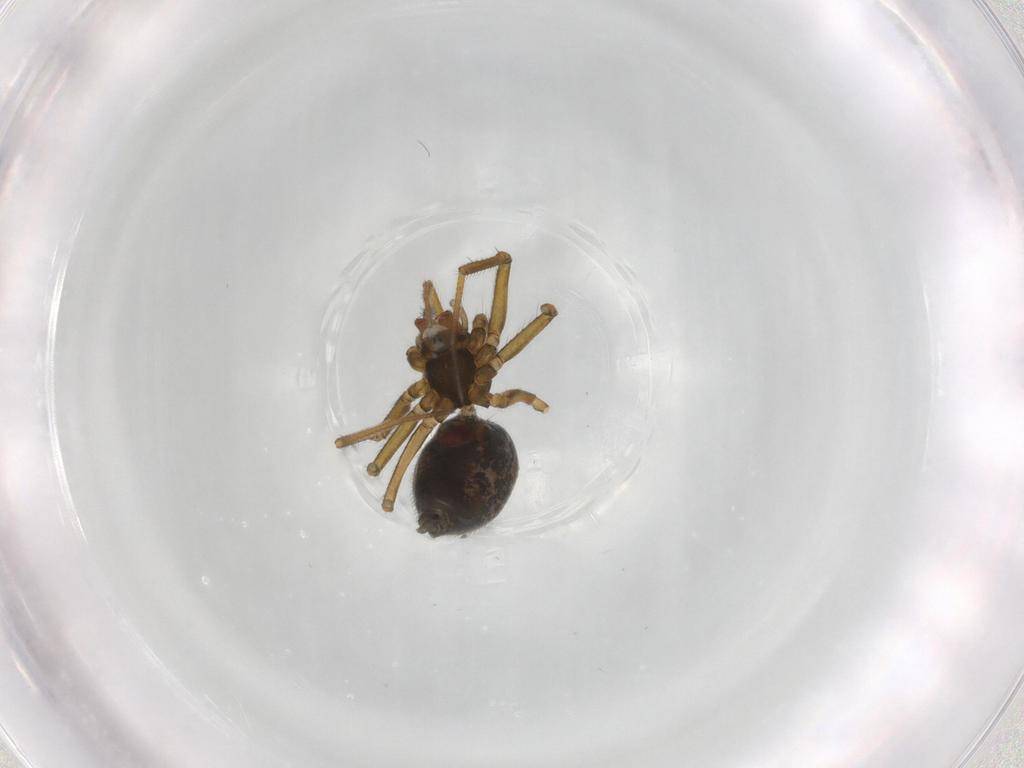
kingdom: Animalia
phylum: Arthropoda
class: Arachnida
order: Araneae
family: Linyphiidae
